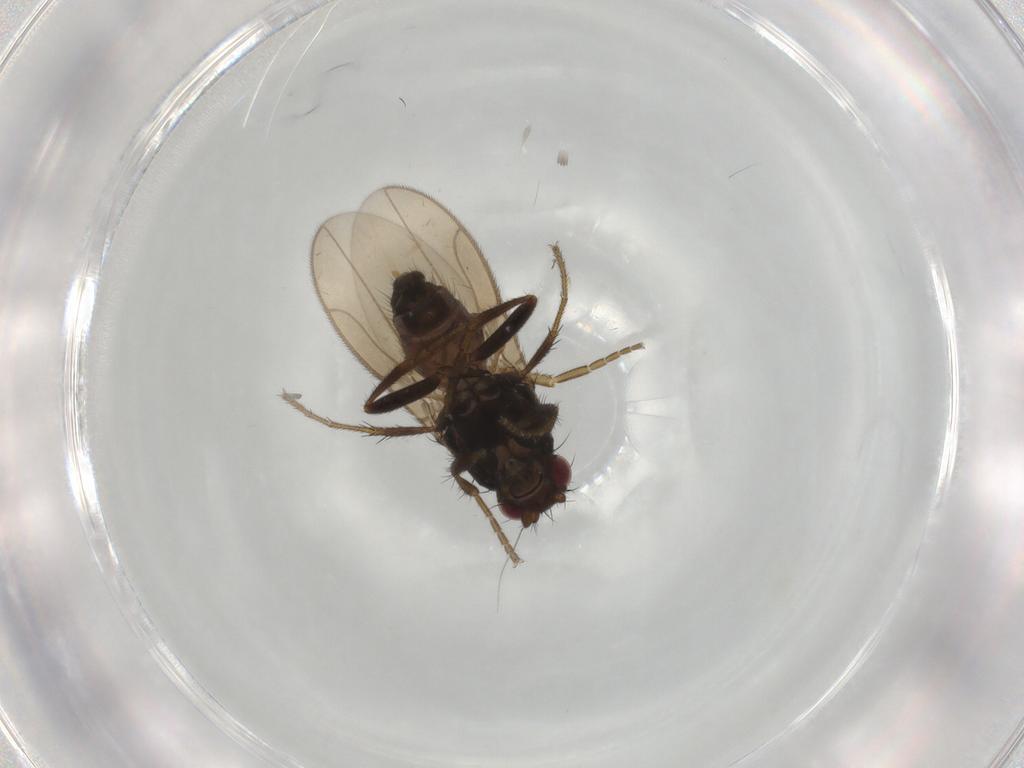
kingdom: Animalia
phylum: Arthropoda
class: Insecta
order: Diptera
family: Sphaeroceridae
